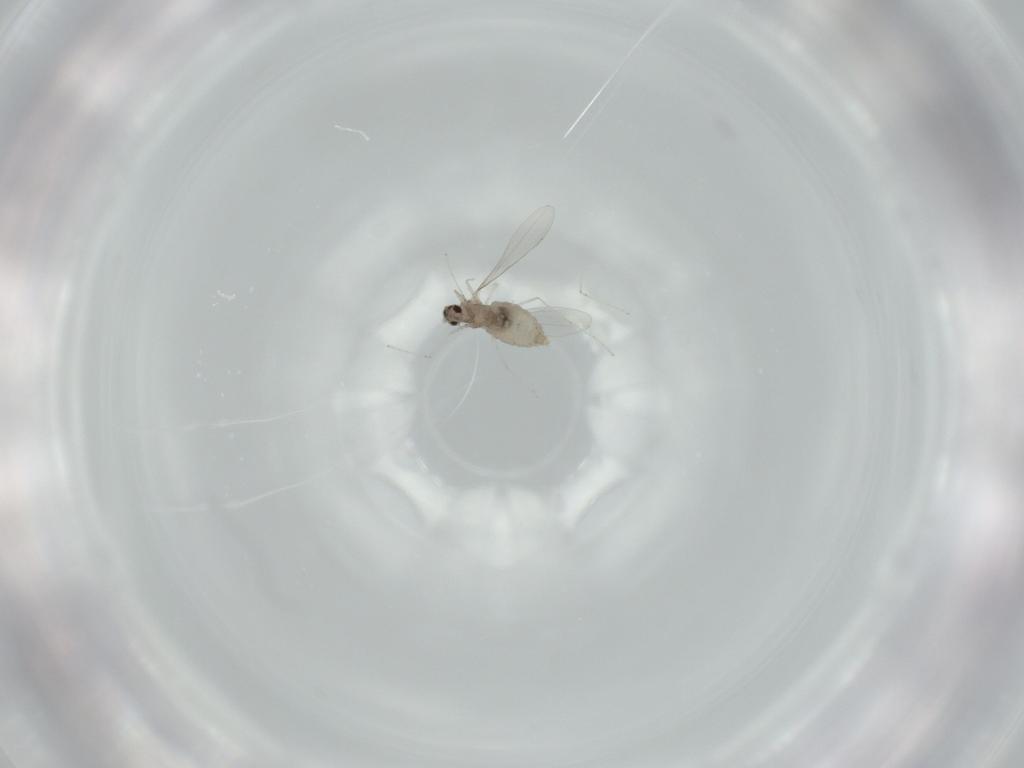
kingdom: Animalia
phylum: Arthropoda
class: Insecta
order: Diptera
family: Cecidomyiidae
